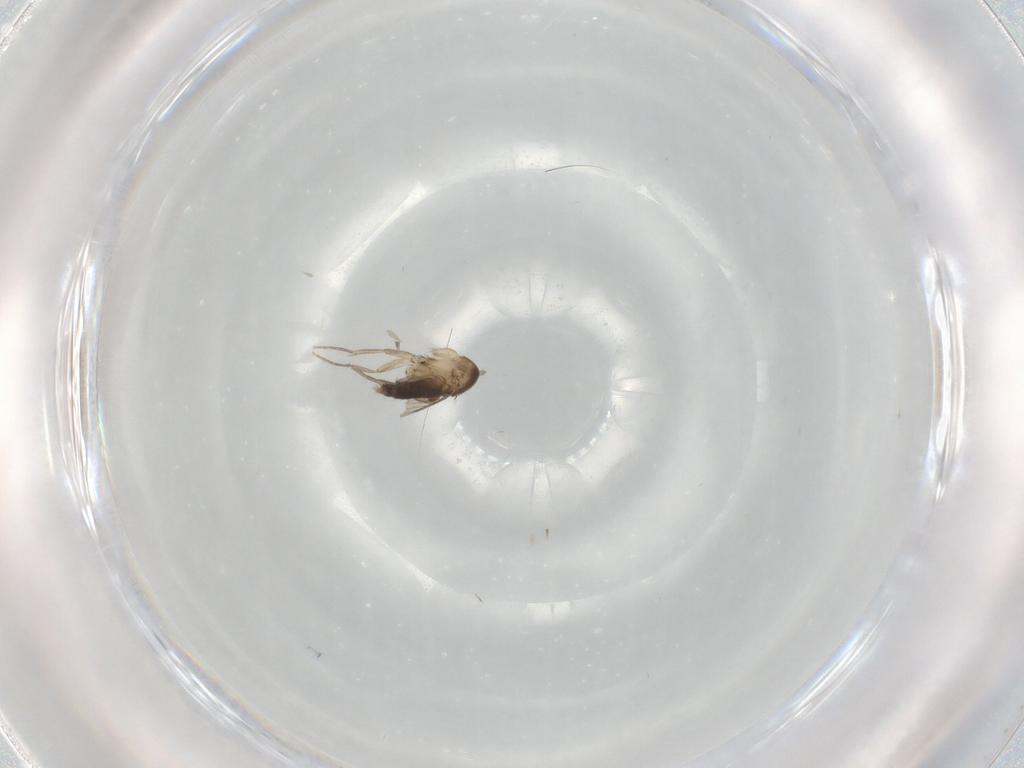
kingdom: Animalia
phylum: Arthropoda
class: Insecta
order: Diptera
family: Phoridae
